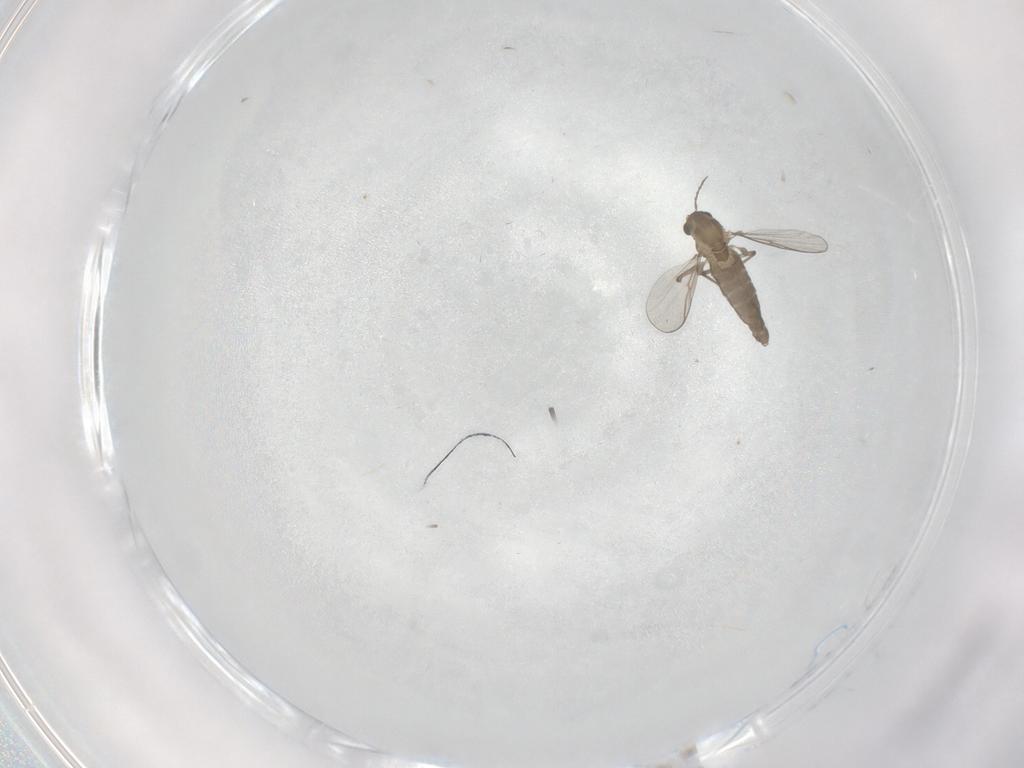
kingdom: Animalia
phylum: Arthropoda
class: Insecta
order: Diptera
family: Chironomidae
